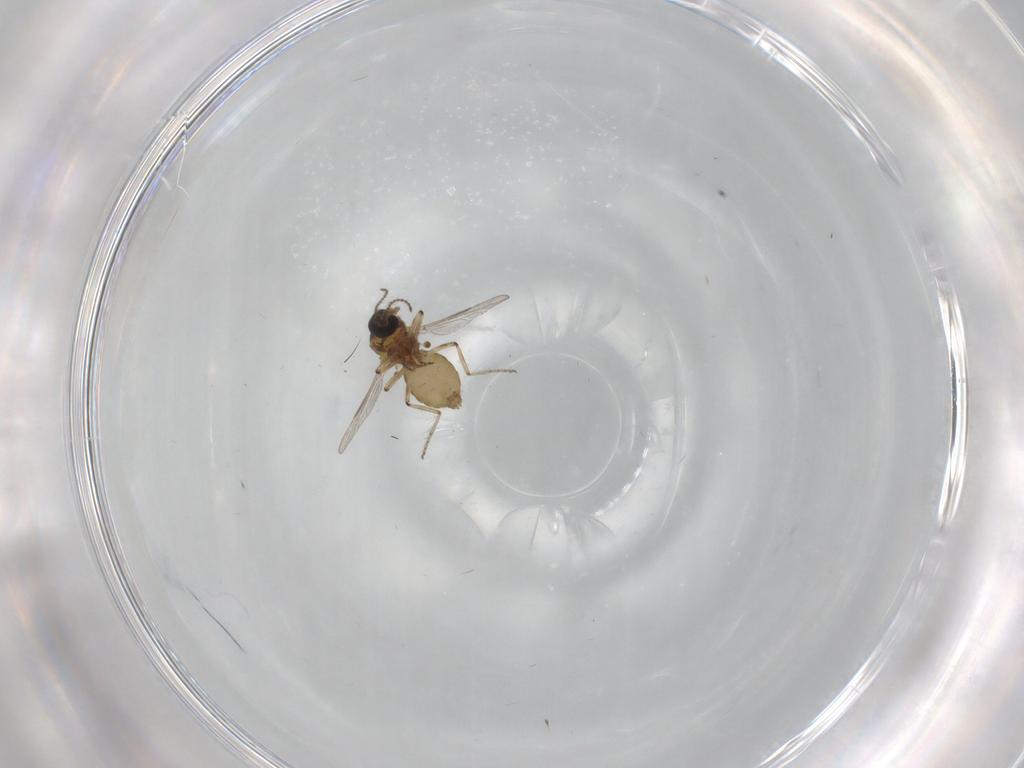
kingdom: Animalia
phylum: Arthropoda
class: Insecta
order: Diptera
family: Ceratopogonidae
